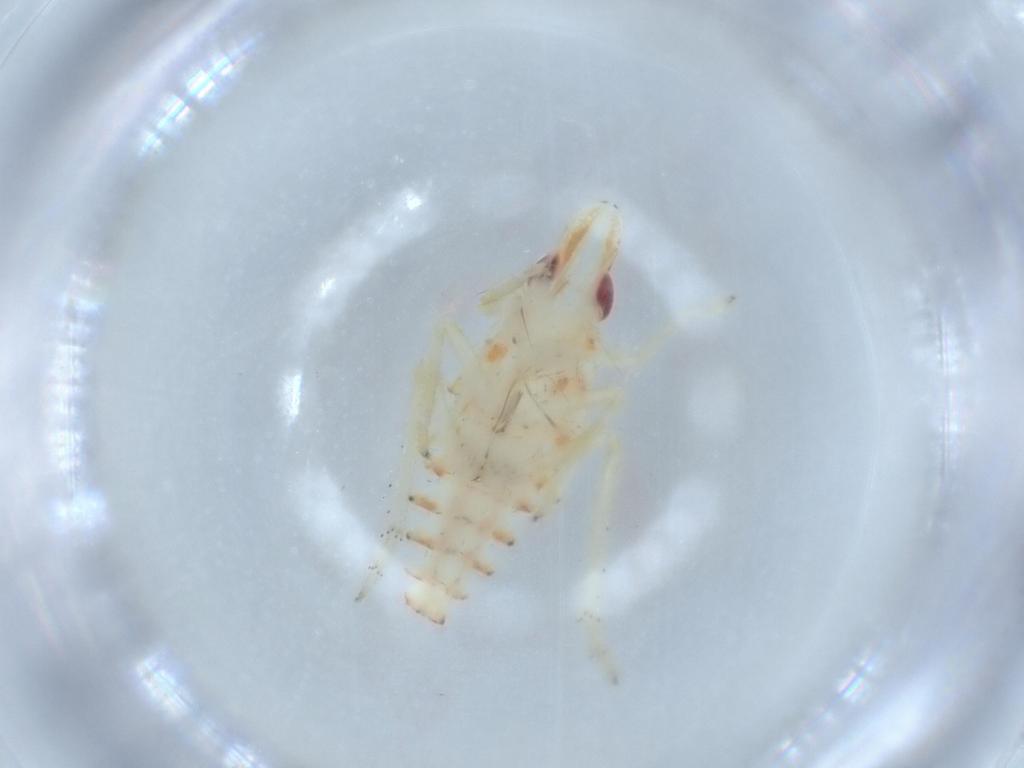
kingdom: Animalia
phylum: Arthropoda
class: Insecta
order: Hemiptera
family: Tropiduchidae
